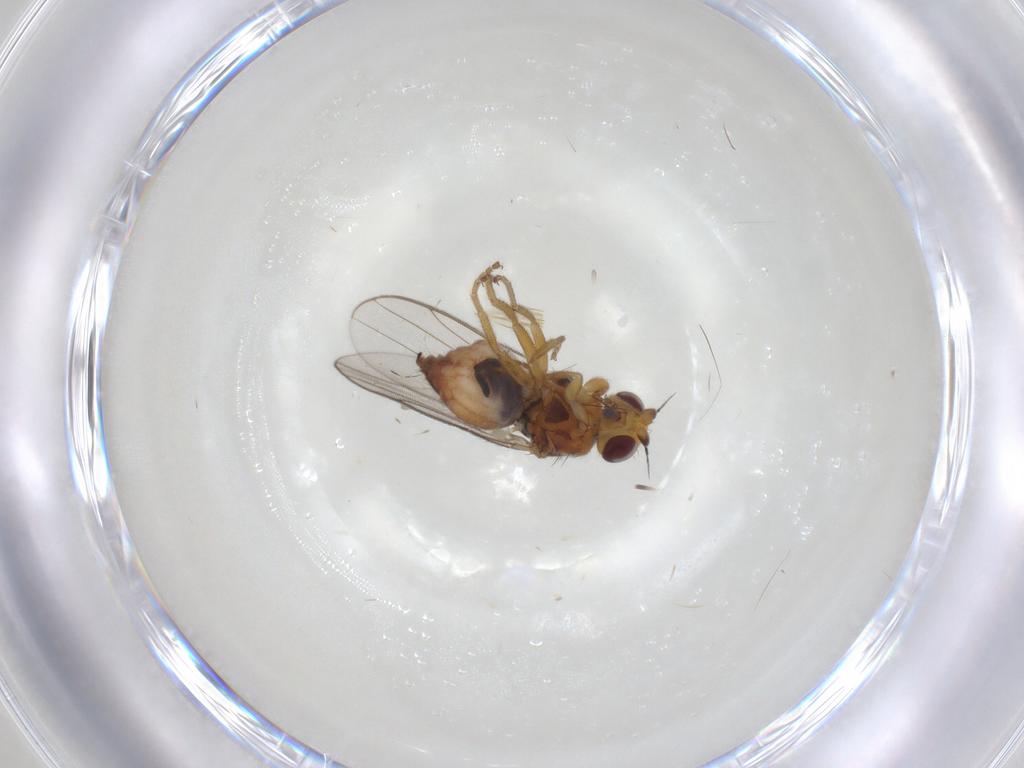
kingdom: Animalia
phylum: Arthropoda
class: Insecta
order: Diptera
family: Chloropidae
